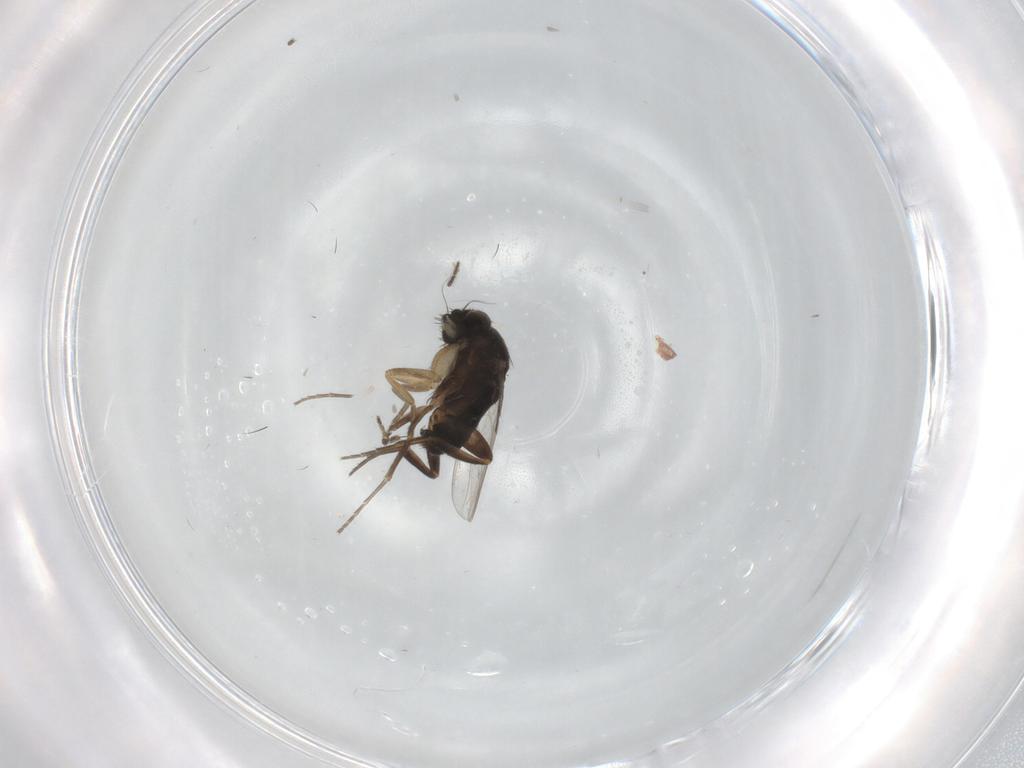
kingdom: Animalia
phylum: Arthropoda
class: Insecta
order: Diptera
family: Phoridae
